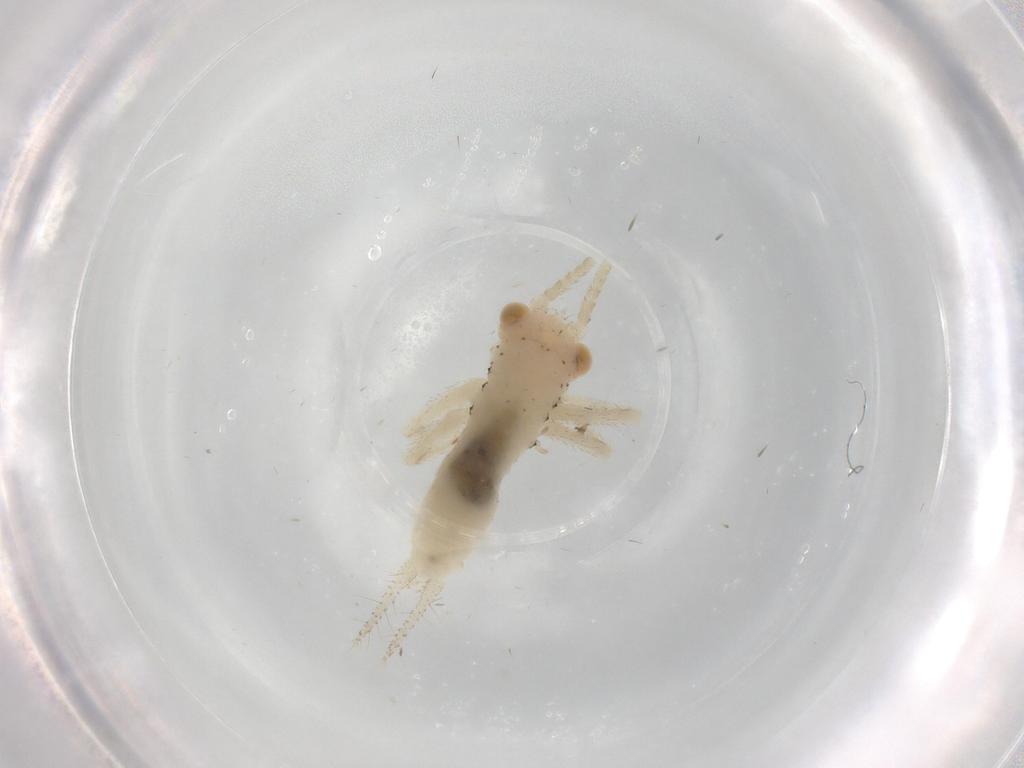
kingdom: Animalia
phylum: Arthropoda
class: Insecta
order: Orthoptera
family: Trigonidiidae
